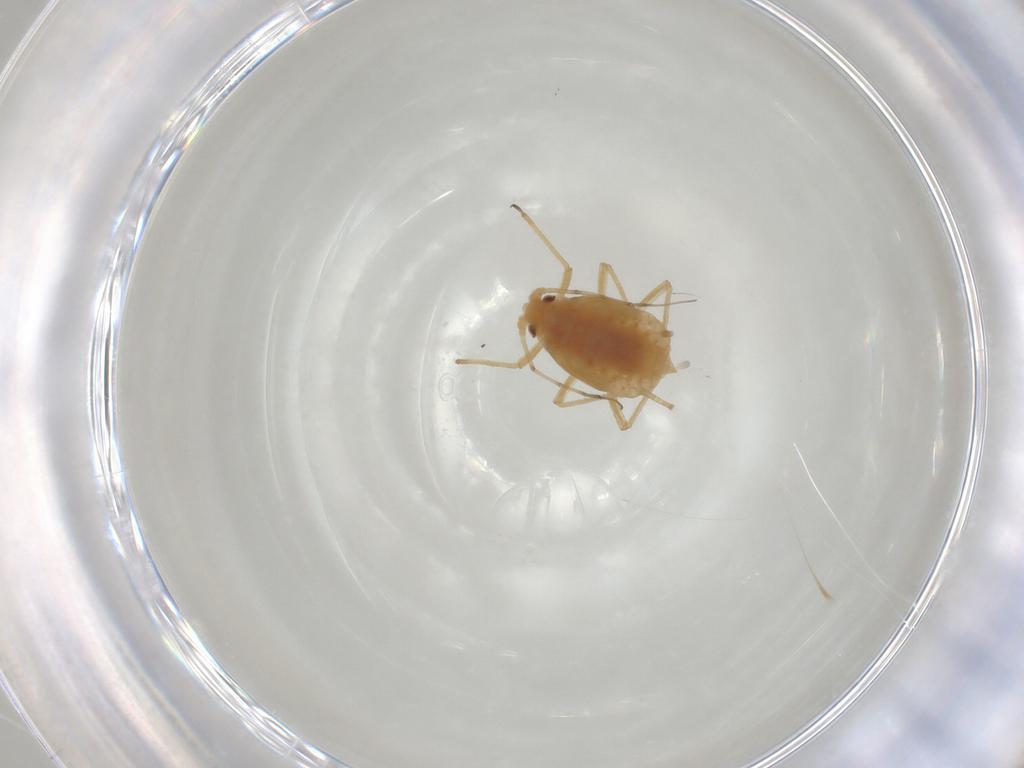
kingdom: Animalia
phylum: Arthropoda
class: Insecta
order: Hemiptera
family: Aphididae
